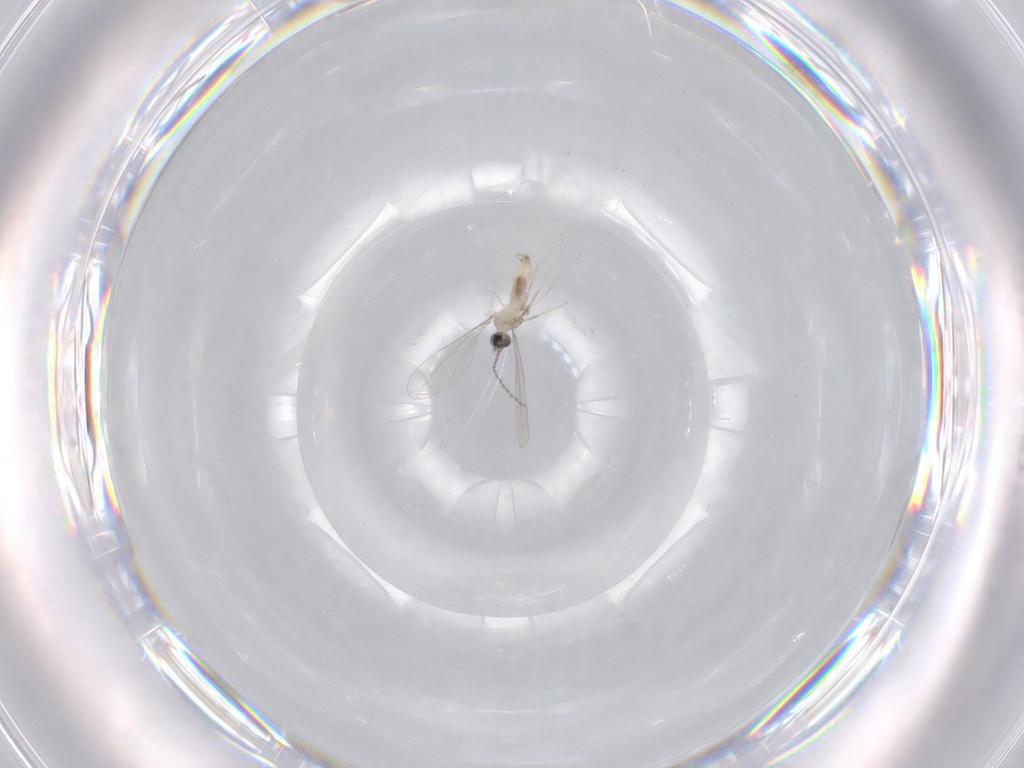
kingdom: Animalia
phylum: Arthropoda
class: Insecta
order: Diptera
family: Cecidomyiidae
